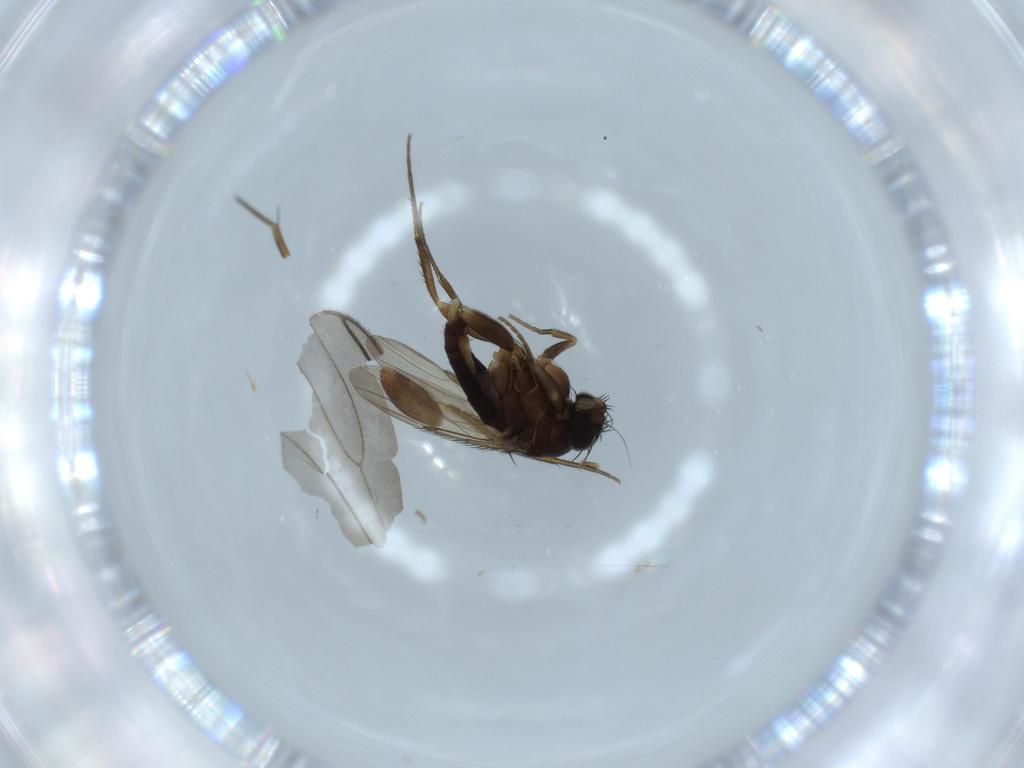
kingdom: Animalia
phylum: Arthropoda
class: Insecta
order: Diptera
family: Phoridae
